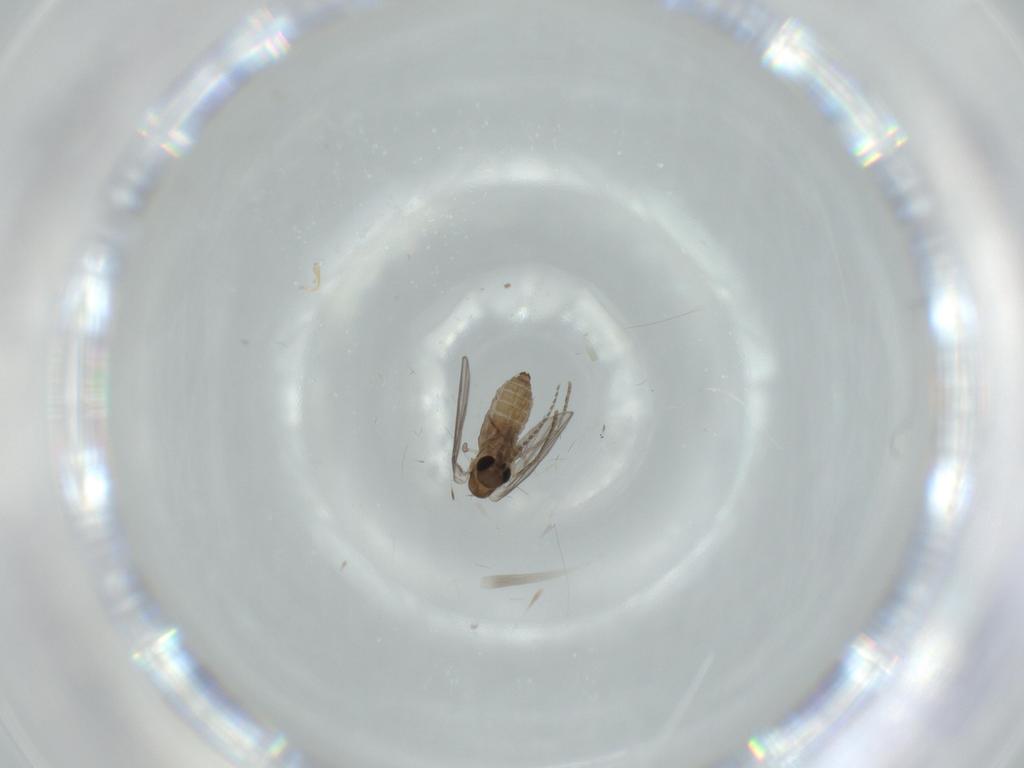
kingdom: Animalia
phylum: Arthropoda
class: Insecta
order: Diptera
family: Psychodidae
